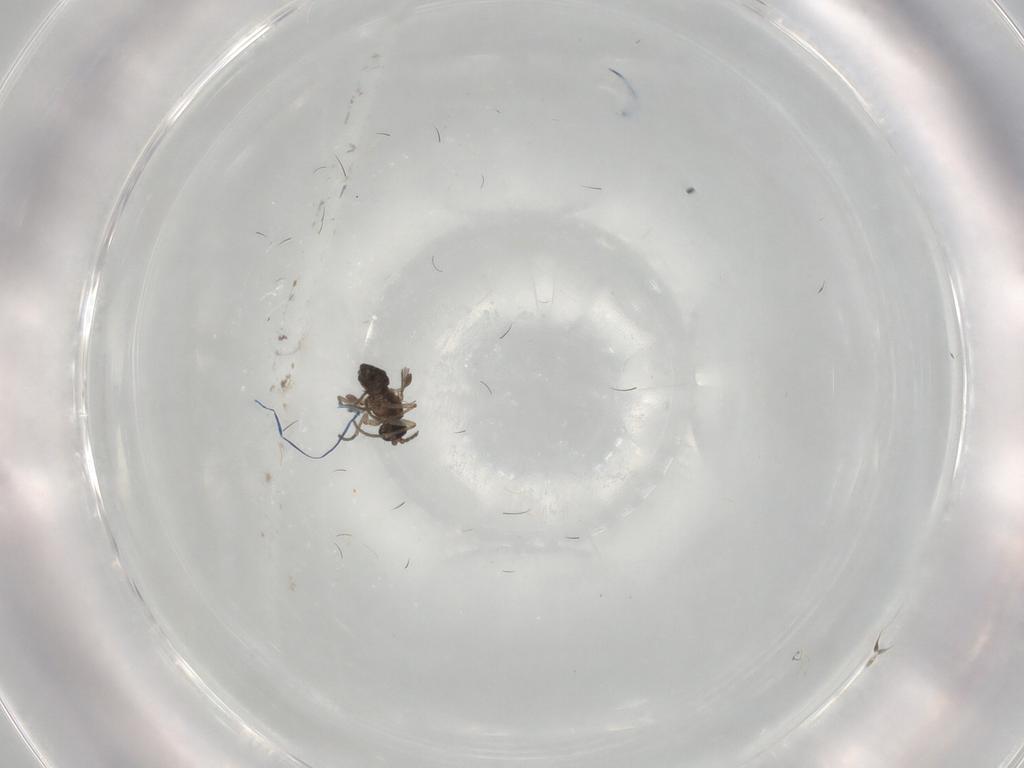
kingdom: Animalia
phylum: Arthropoda
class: Insecta
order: Diptera
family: Sciaridae
